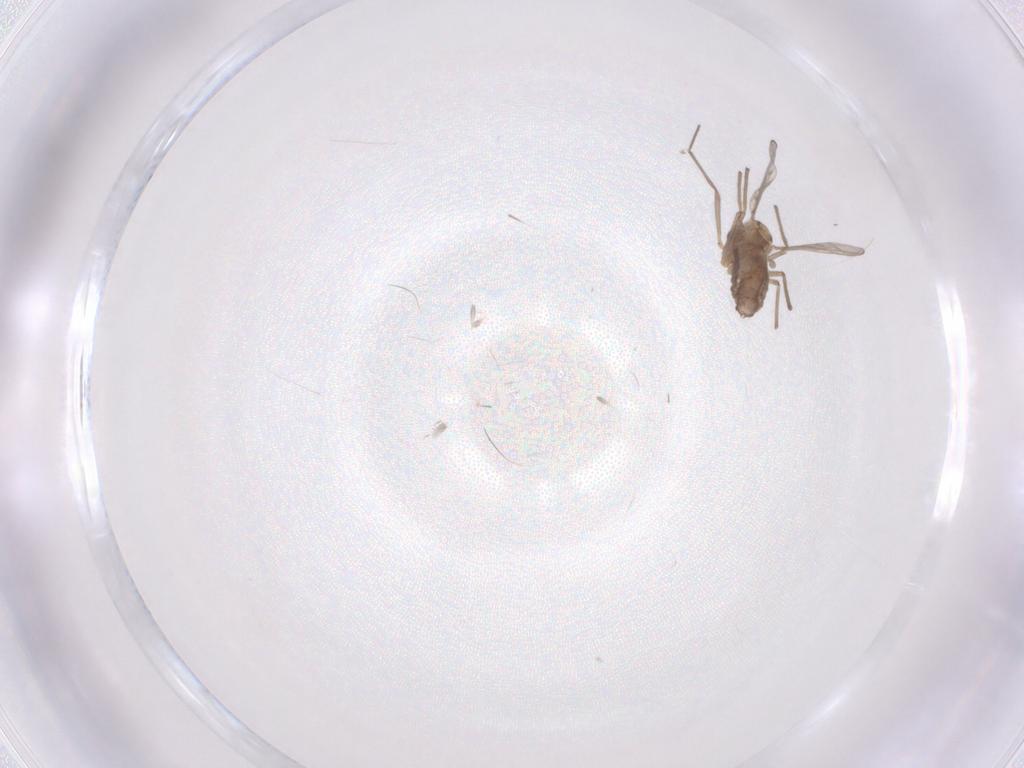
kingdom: Animalia
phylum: Arthropoda
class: Insecta
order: Diptera
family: Chironomidae
